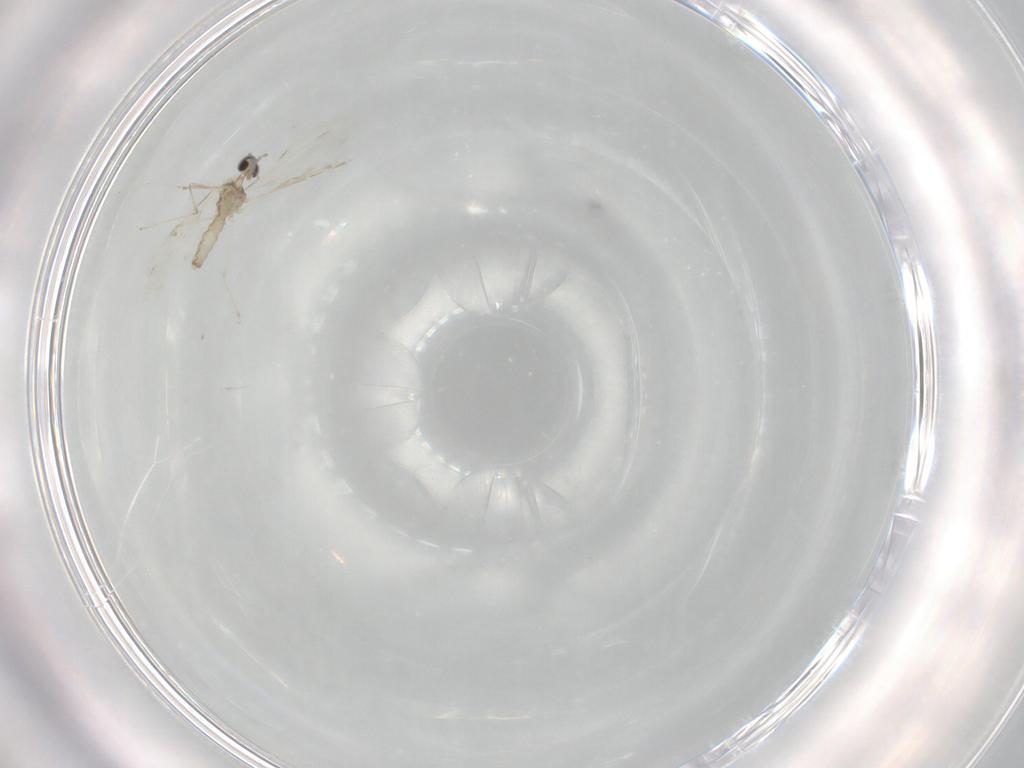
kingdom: Animalia
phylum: Arthropoda
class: Insecta
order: Diptera
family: Cecidomyiidae
